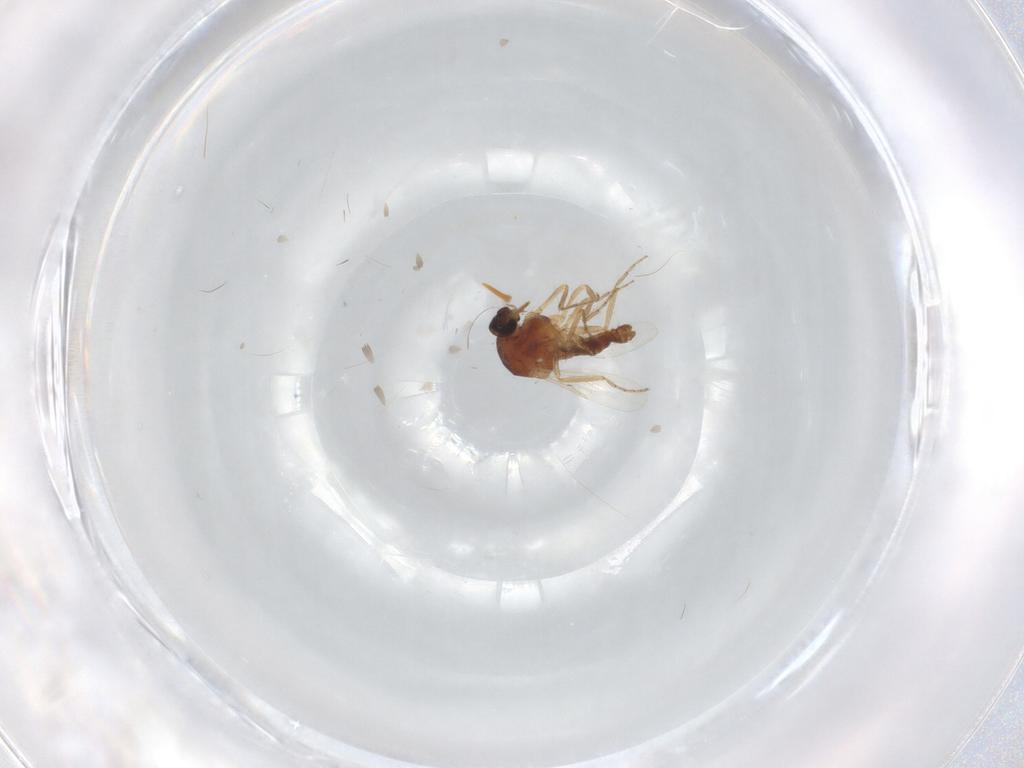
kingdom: Animalia
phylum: Arthropoda
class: Insecta
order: Diptera
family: Ceratopogonidae
